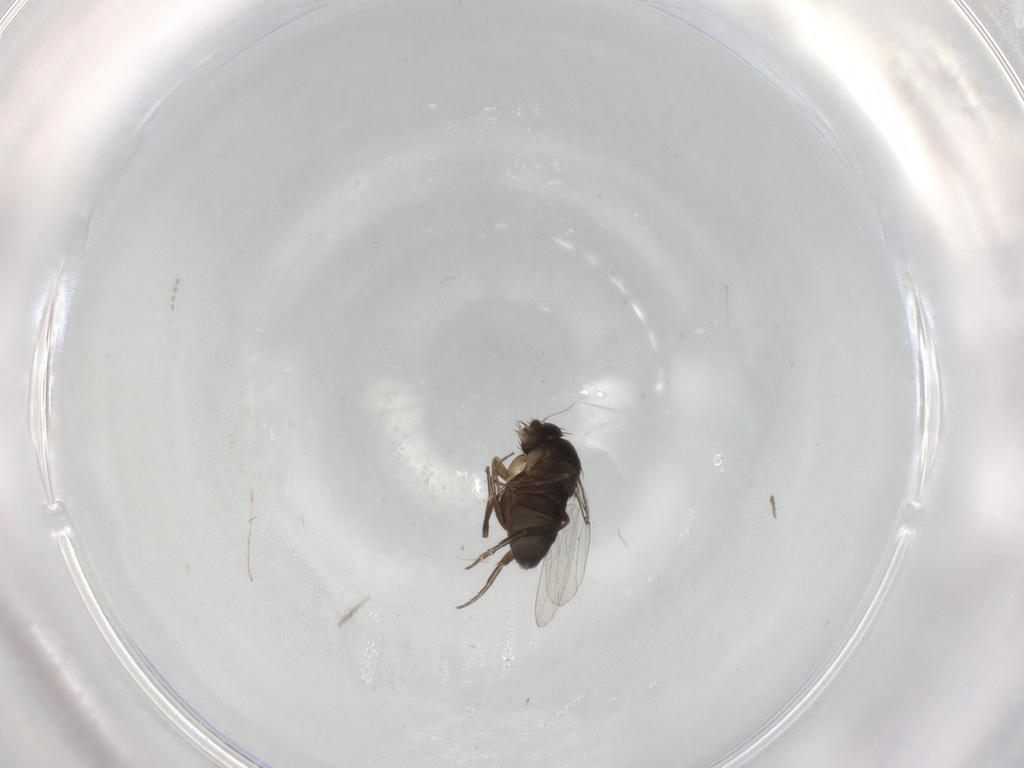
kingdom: Animalia
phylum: Arthropoda
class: Insecta
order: Diptera
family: Phoridae
